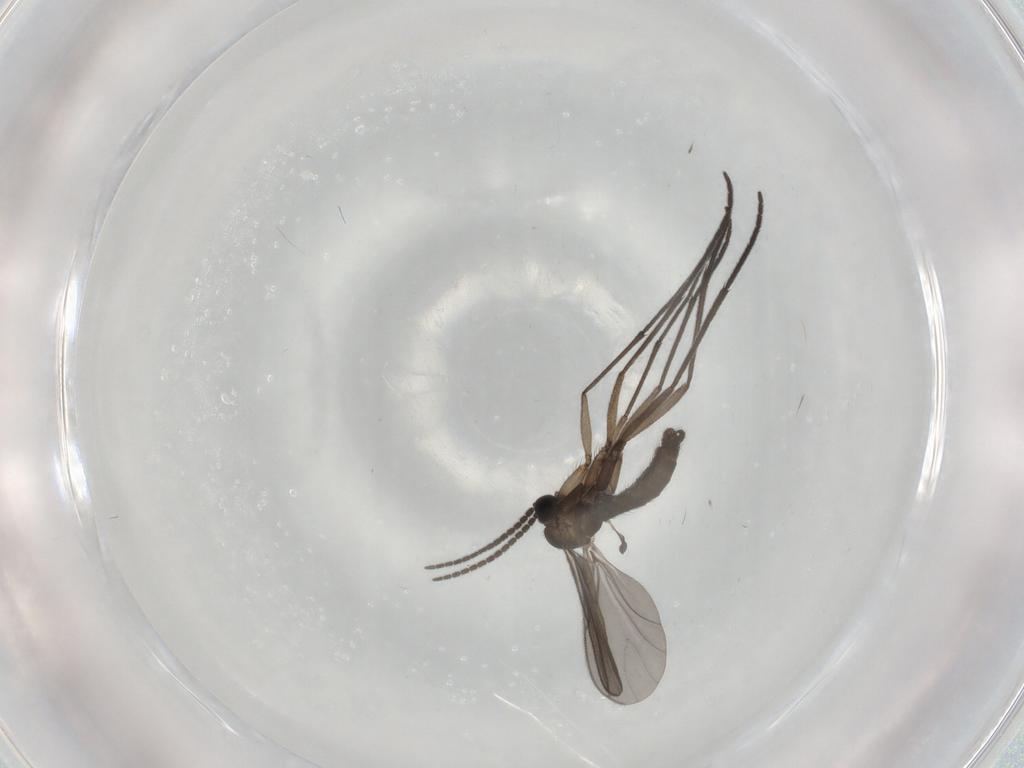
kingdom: Animalia
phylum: Arthropoda
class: Insecta
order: Diptera
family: Sciaridae
